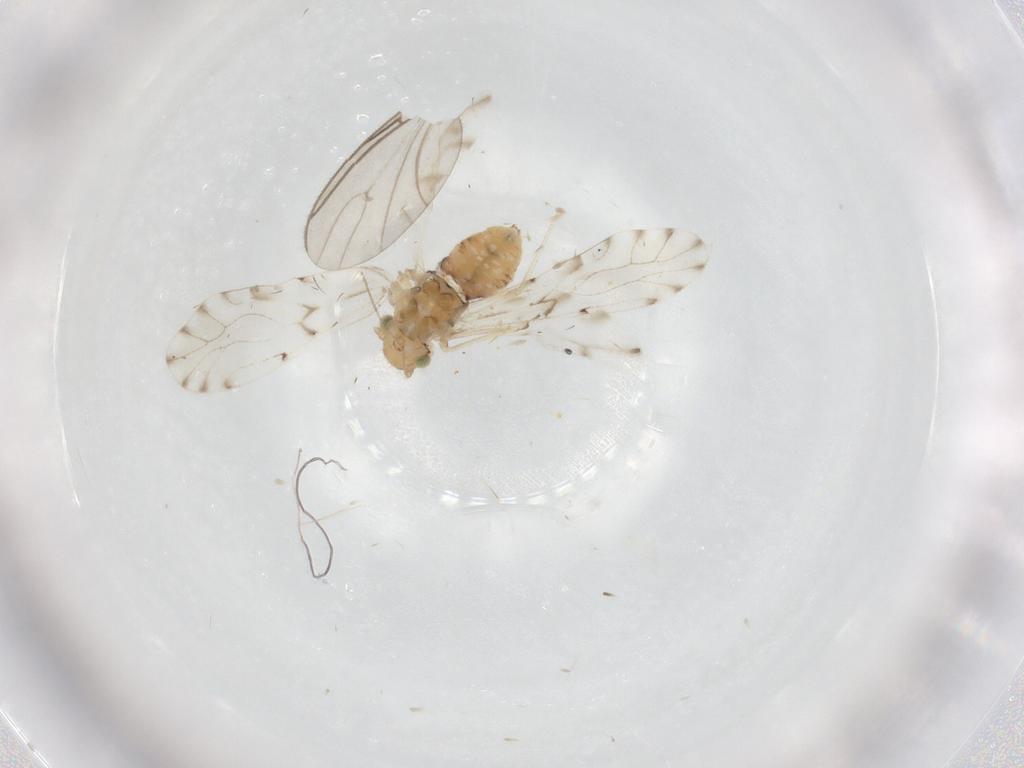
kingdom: Animalia
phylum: Arthropoda
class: Insecta
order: Psocodea
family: Ectopsocidae
